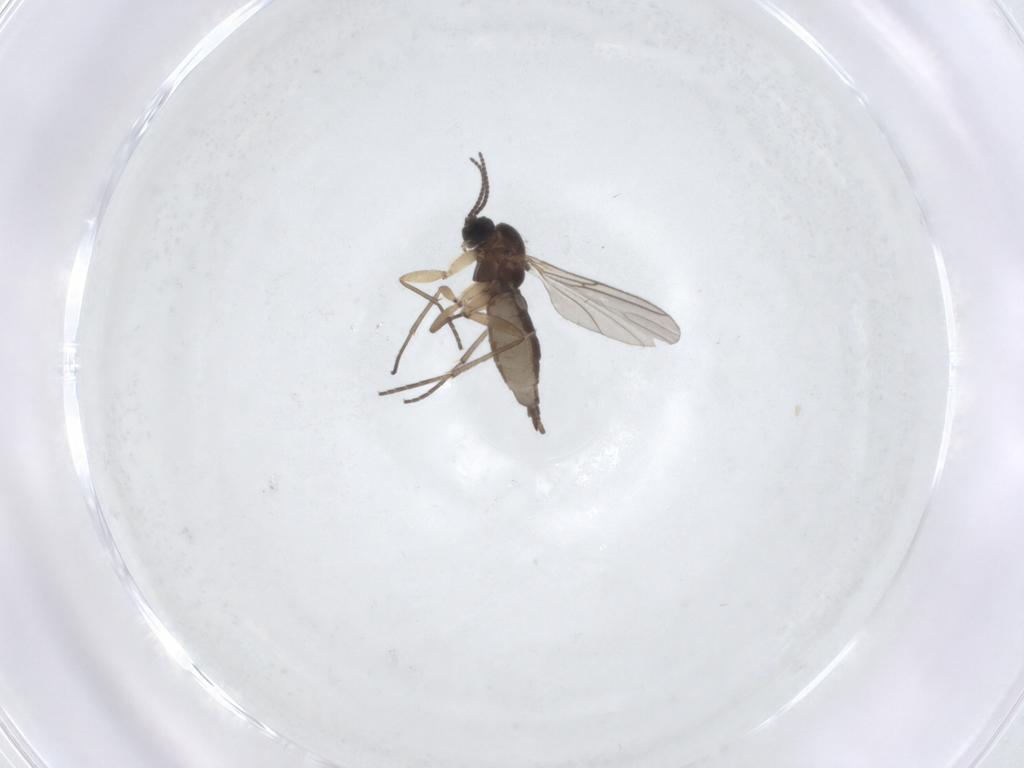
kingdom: Animalia
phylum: Arthropoda
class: Insecta
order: Diptera
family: Sciaridae
